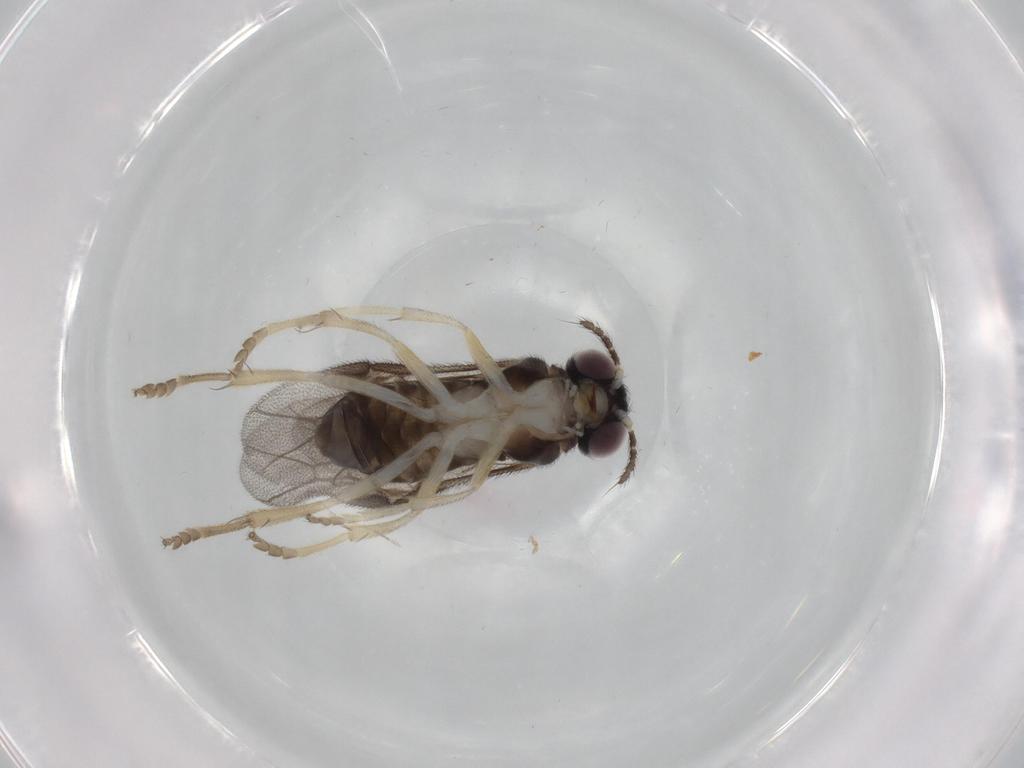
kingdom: Animalia
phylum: Arthropoda
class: Insecta
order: Hymenoptera
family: Pergidae
